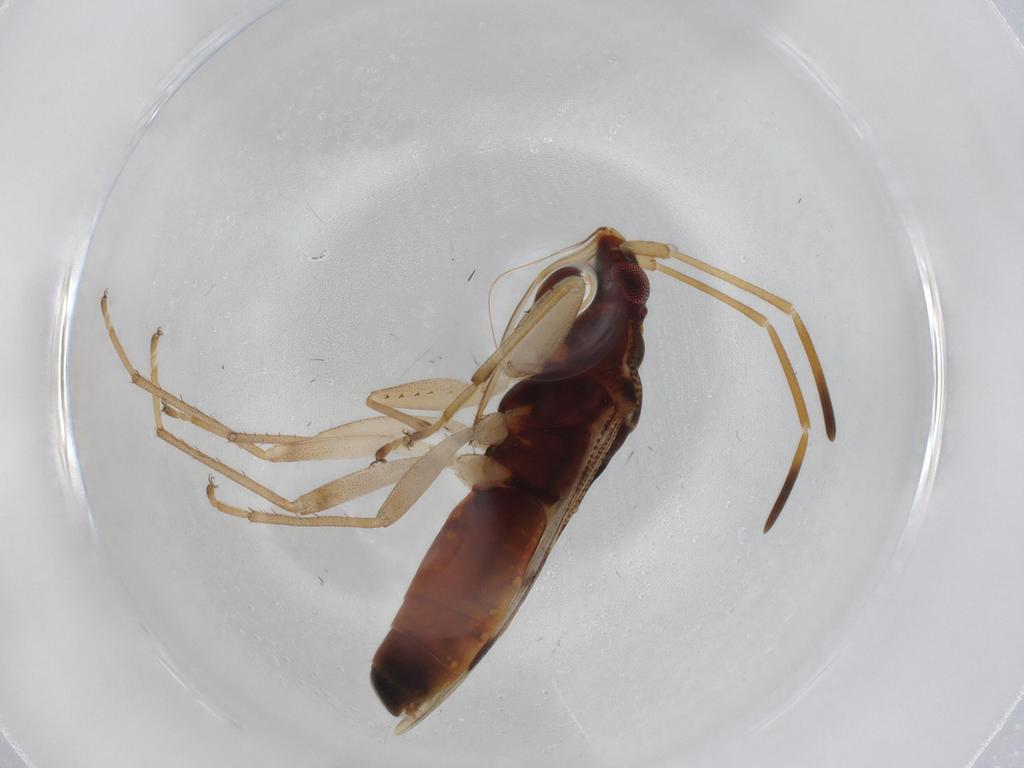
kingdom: Animalia
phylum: Arthropoda
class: Insecta
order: Hemiptera
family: Rhyparochromidae
